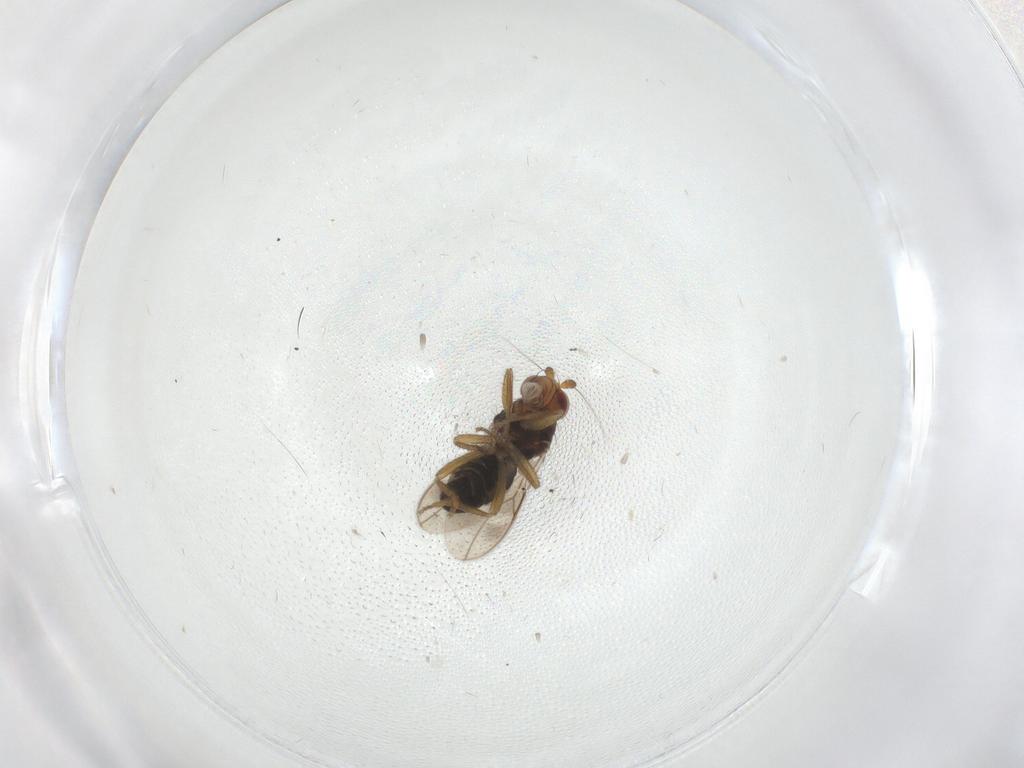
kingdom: Animalia
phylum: Arthropoda
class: Insecta
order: Diptera
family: Sphaeroceridae
